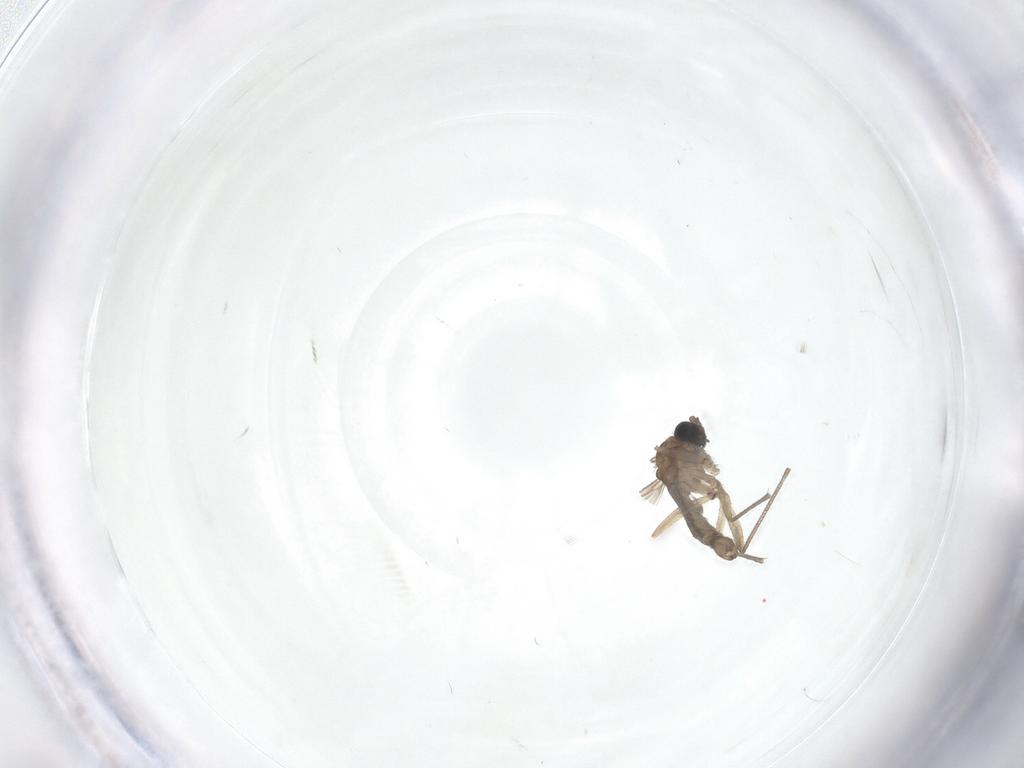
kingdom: Animalia
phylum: Arthropoda
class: Insecta
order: Diptera
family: Sciaridae
